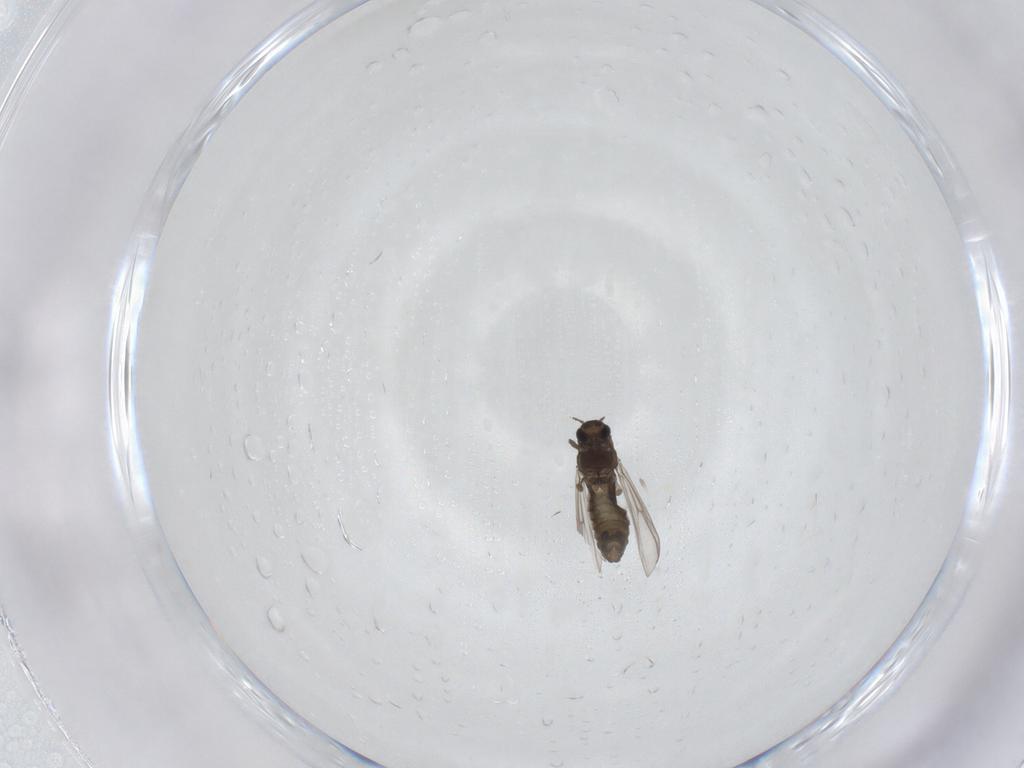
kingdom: Animalia
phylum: Arthropoda
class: Insecta
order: Diptera
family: Chironomidae
